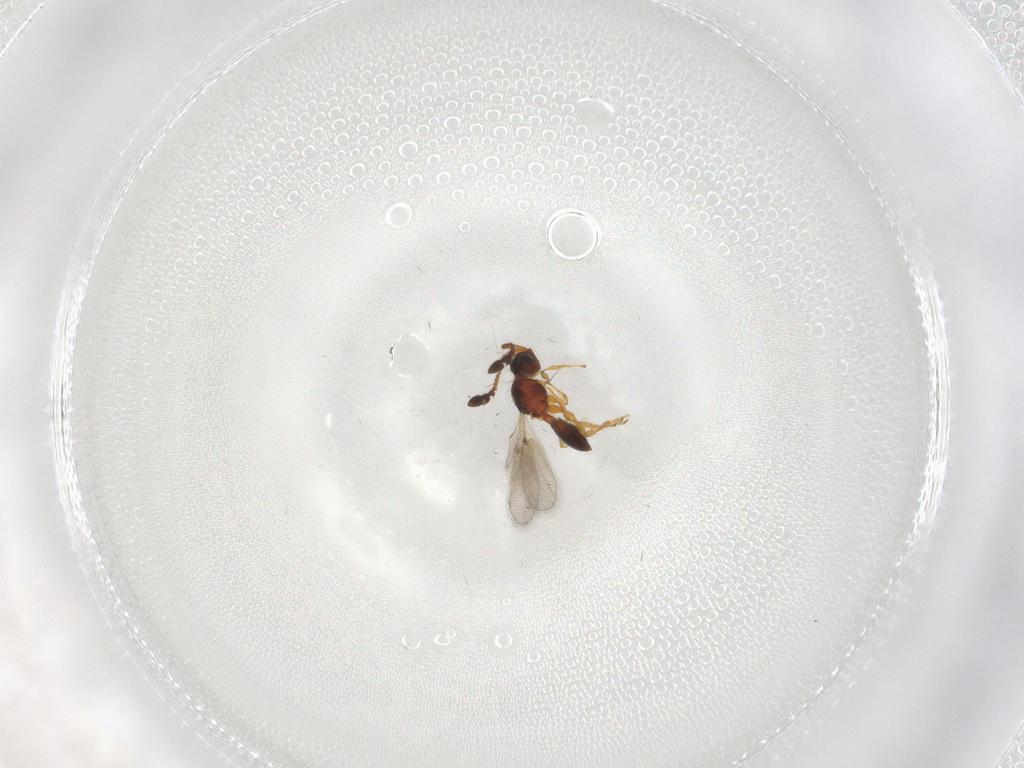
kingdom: Animalia
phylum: Arthropoda
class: Insecta
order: Hymenoptera
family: Diapriidae
